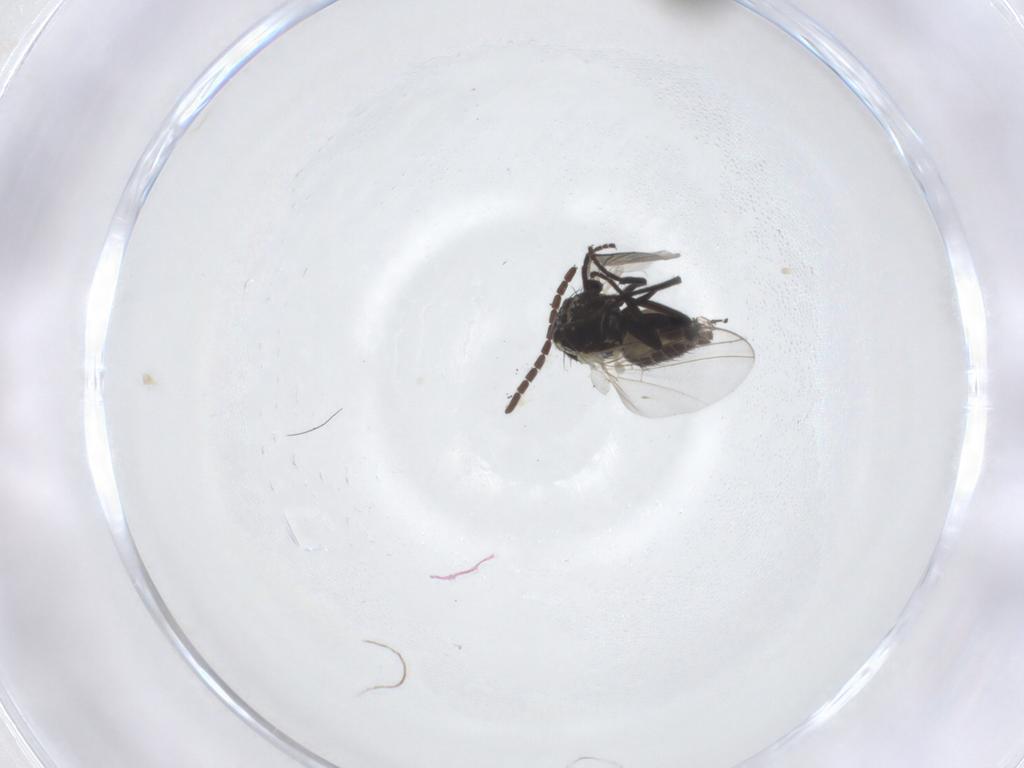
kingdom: Animalia
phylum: Arthropoda
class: Insecta
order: Diptera
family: Agromyzidae
